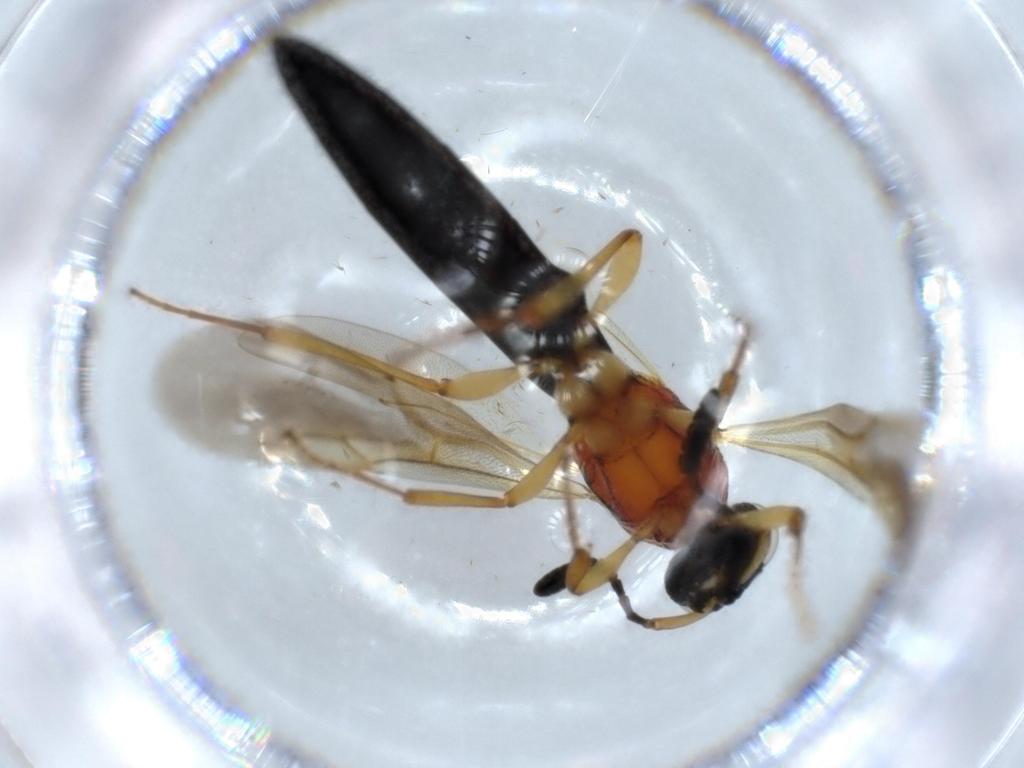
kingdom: Animalia
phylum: Arthropoda
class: Insecta
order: Hymenoptera
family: Scelionidae
